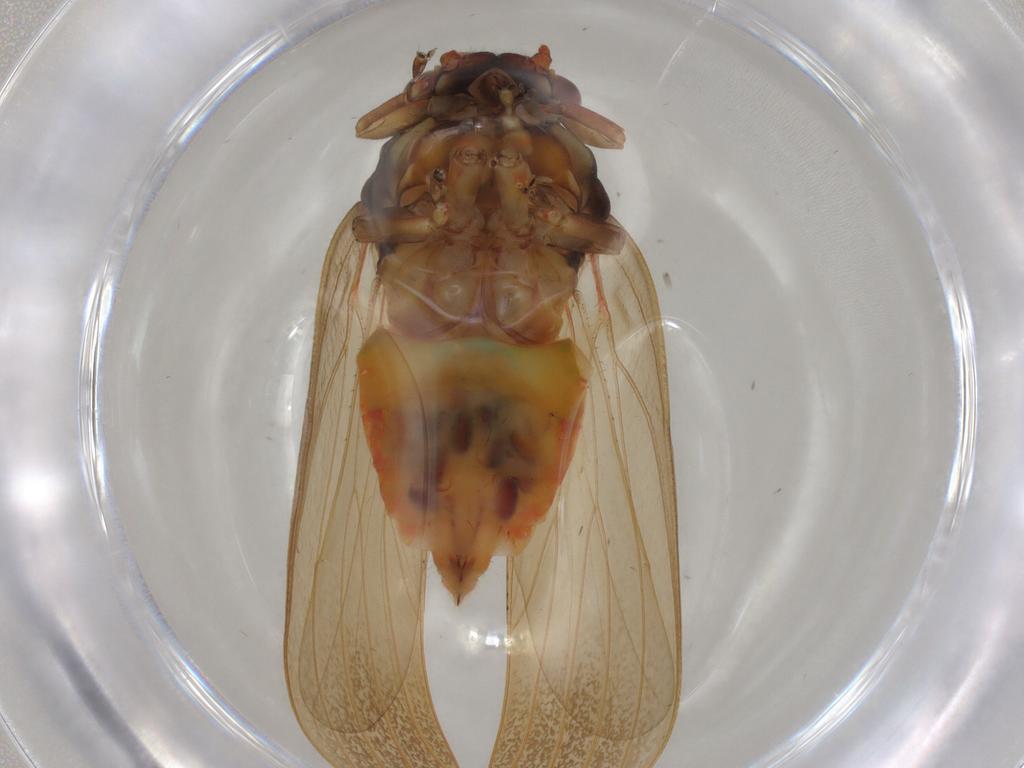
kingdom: Animalia
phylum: Arthropoda
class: Insecta
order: Hemiptera
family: Aphrophoridae
